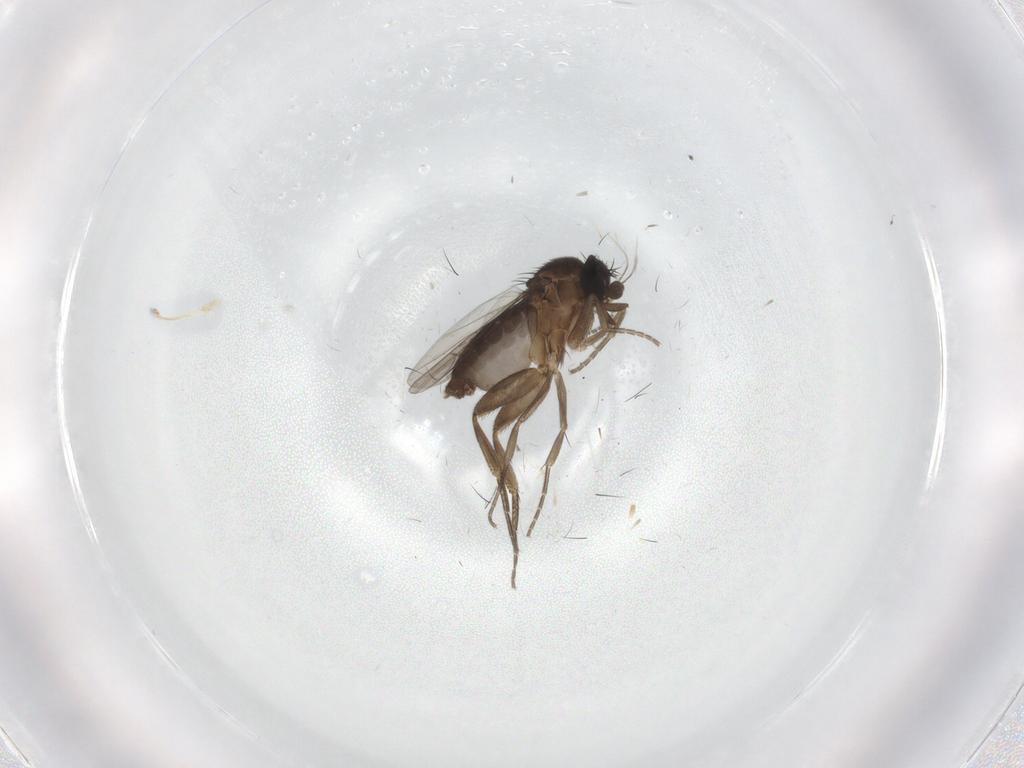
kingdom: Animalia
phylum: Arthropoda
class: Insecta
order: Diptera
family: Phoridae
